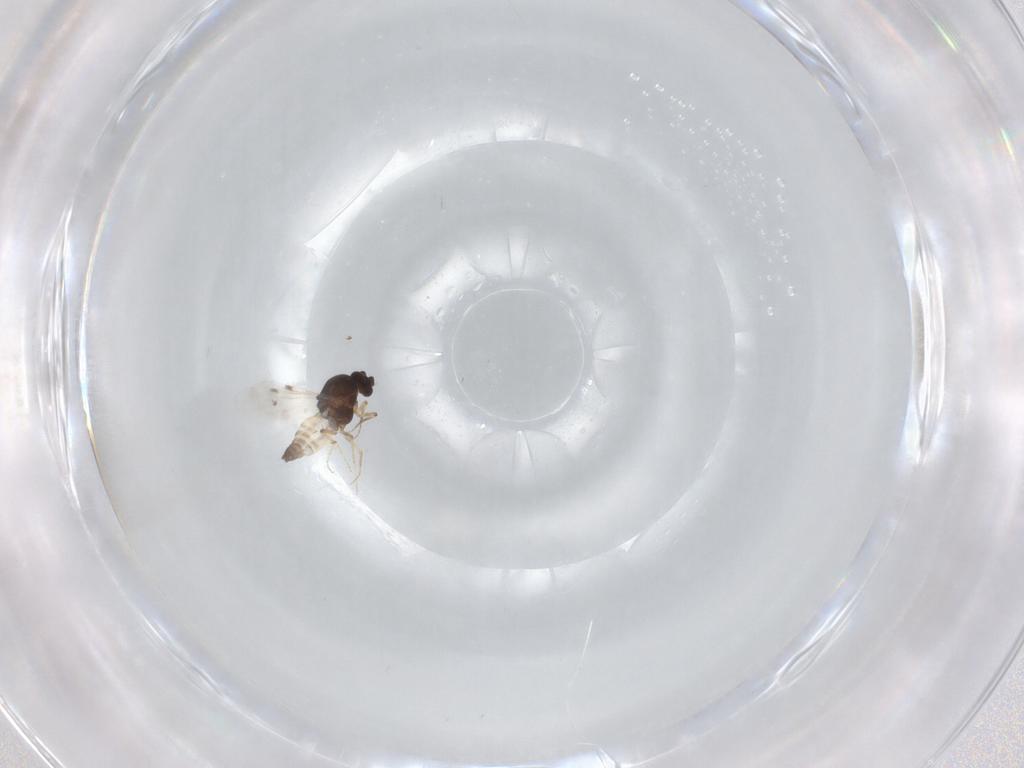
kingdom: Animalia
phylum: Arthropoda
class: Insecta
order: Diptera
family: Phoridae
